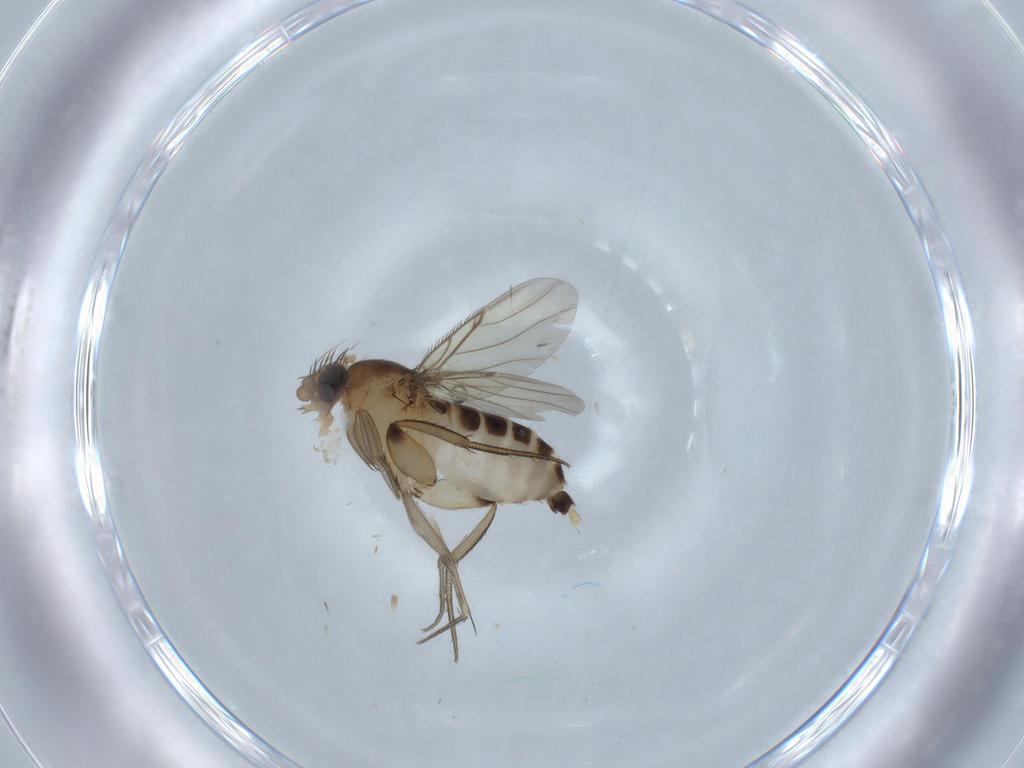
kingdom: Animalia
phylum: Arthropoda
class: Insecta
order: Diptera
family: Phoridae
